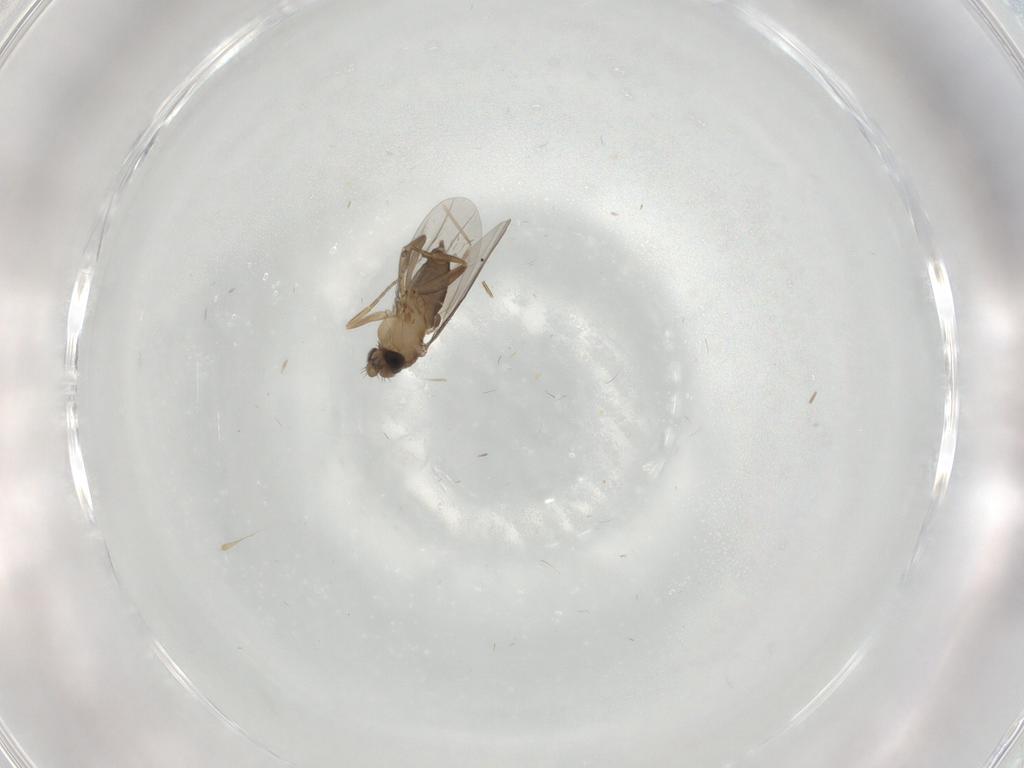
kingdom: Animalia
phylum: Arthropoda
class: Insecta
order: Diptera
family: Cecidomyiidae
